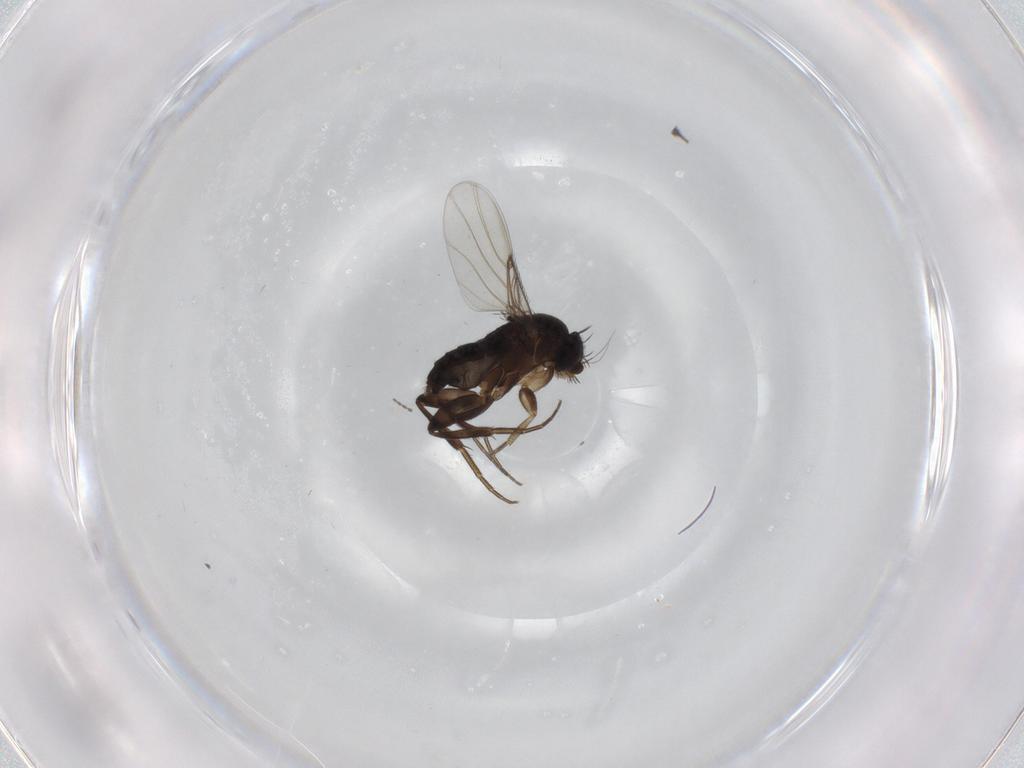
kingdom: Animalia
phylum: Arthropoda
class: Insecta
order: Diptera
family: Phoridae
